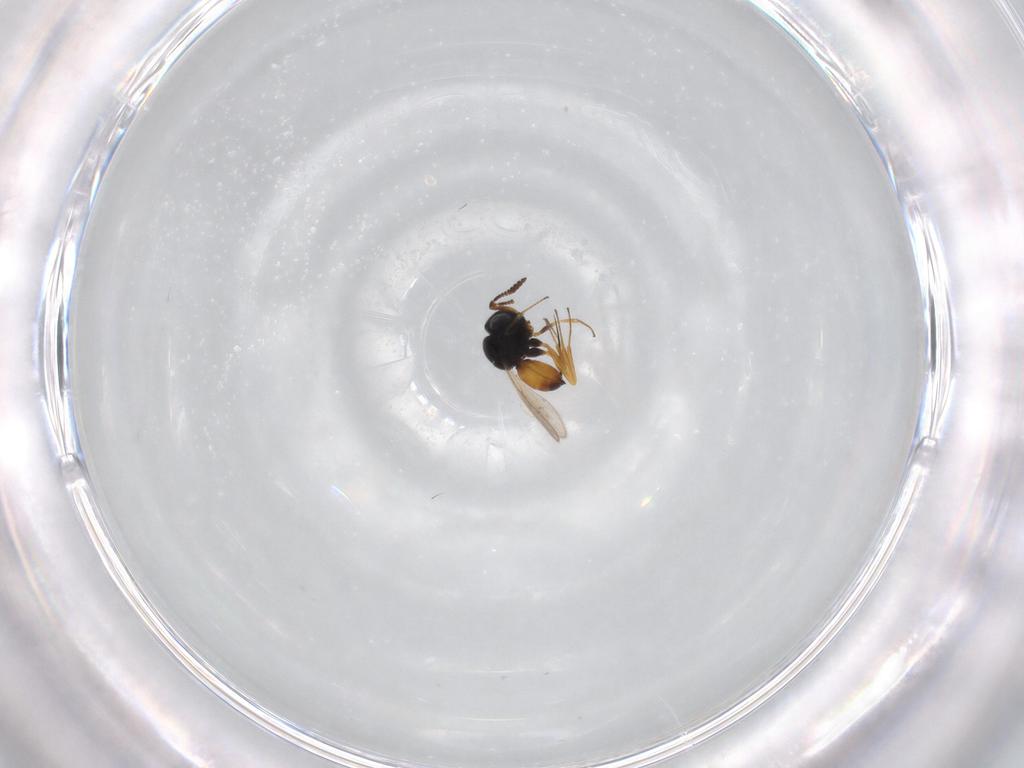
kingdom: Animalia
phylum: Arthropoda
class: Insecta
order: Hymenoptera
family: Scelionidae
